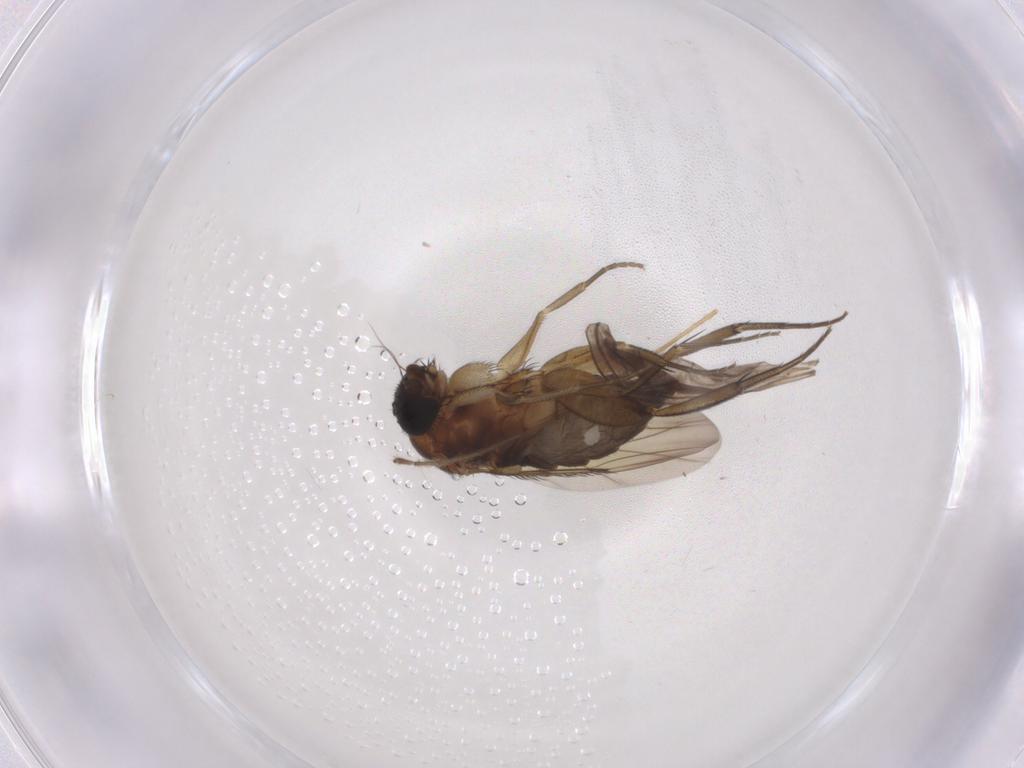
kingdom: Animalia
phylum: Arthropoda
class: Insecta
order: Diptera
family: Phoridae
